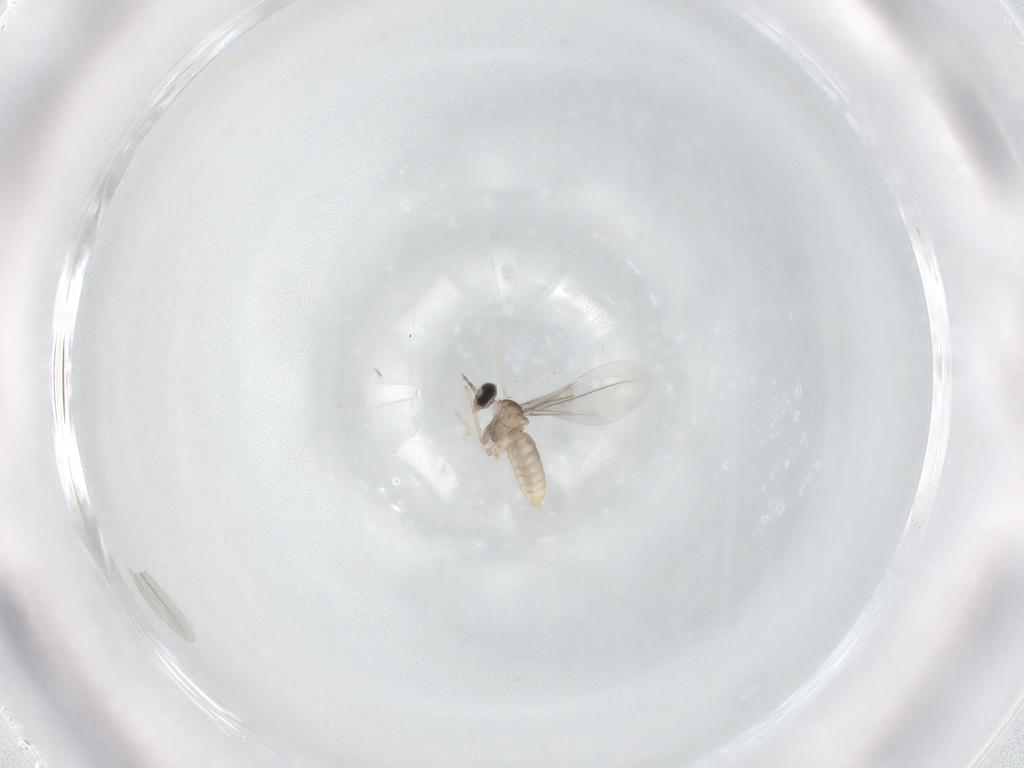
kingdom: Animalia
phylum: Arthropoda
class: Insecta
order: Diptera
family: Cecidomyiidae
